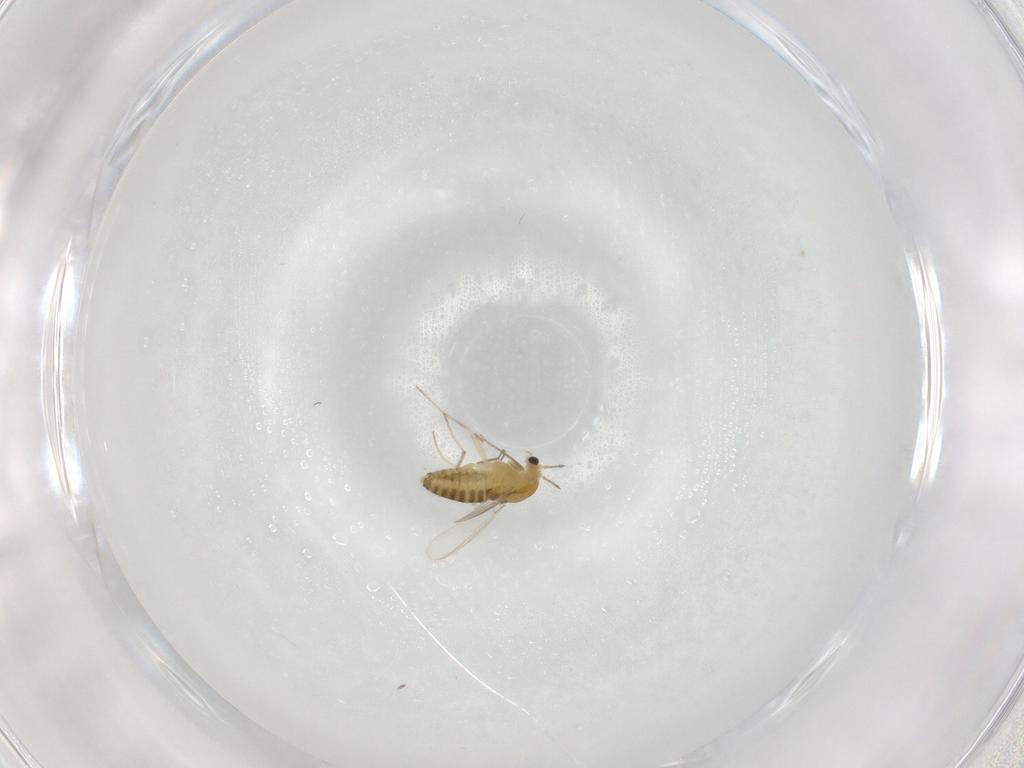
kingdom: Animalia
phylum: Arthropoda
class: Insecta
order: Diptera
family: Chironomidae
